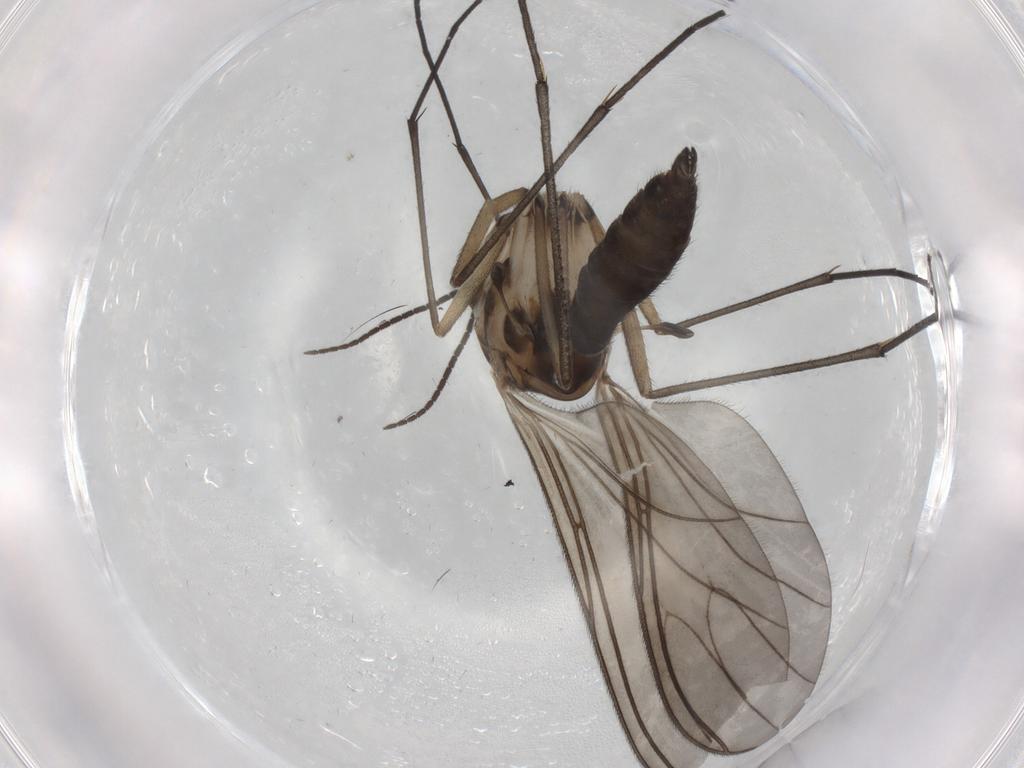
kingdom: Animalia
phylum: Arthropoda
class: Insecta
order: Diptera
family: Sciaridae
